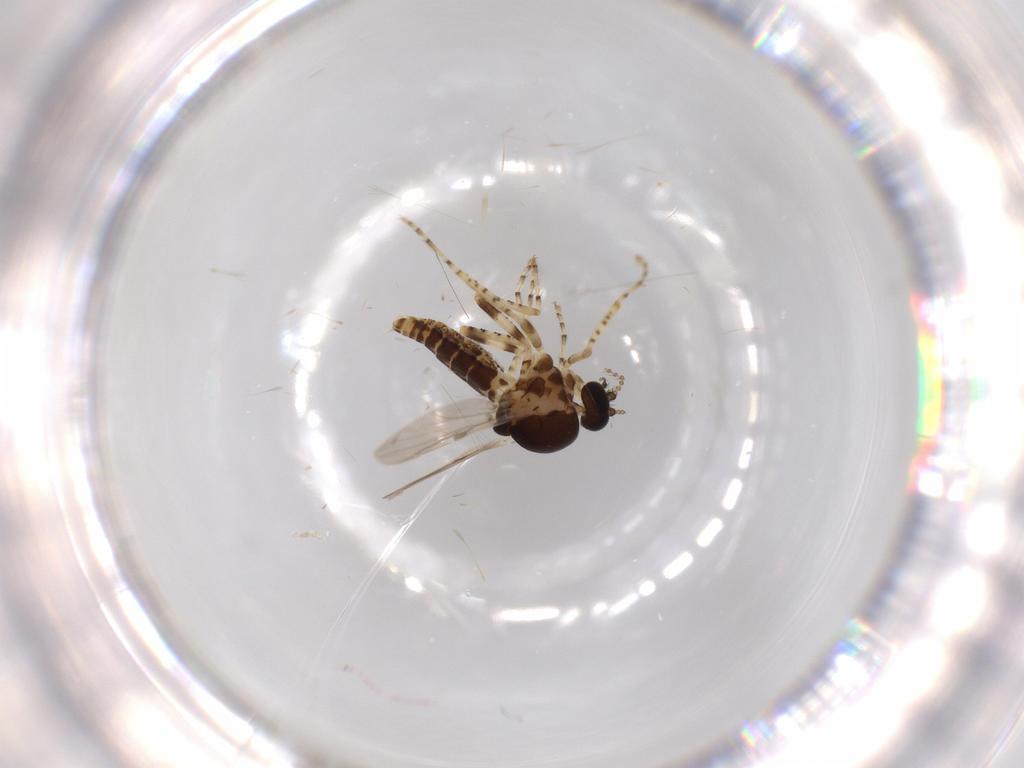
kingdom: Animalia
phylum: Arthropoda
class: Insecta
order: Diptera
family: Ceratopogonidae
